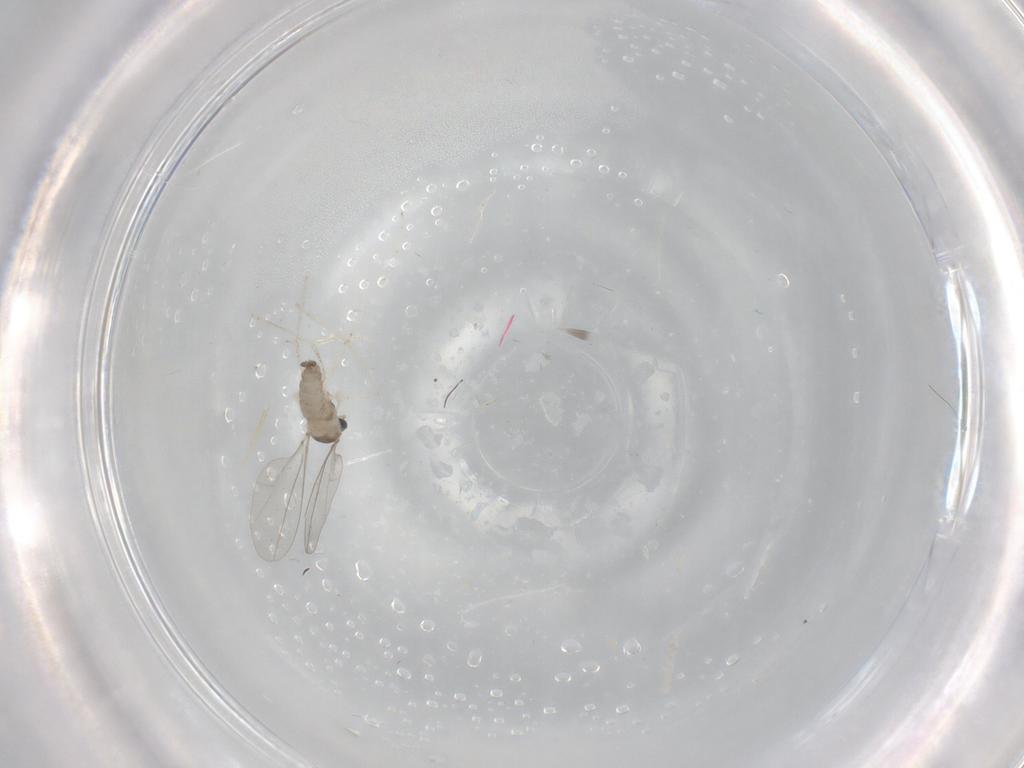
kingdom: Animalia
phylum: Arthropoda
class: Insecta
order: Diptera
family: Cecidomyiidae
